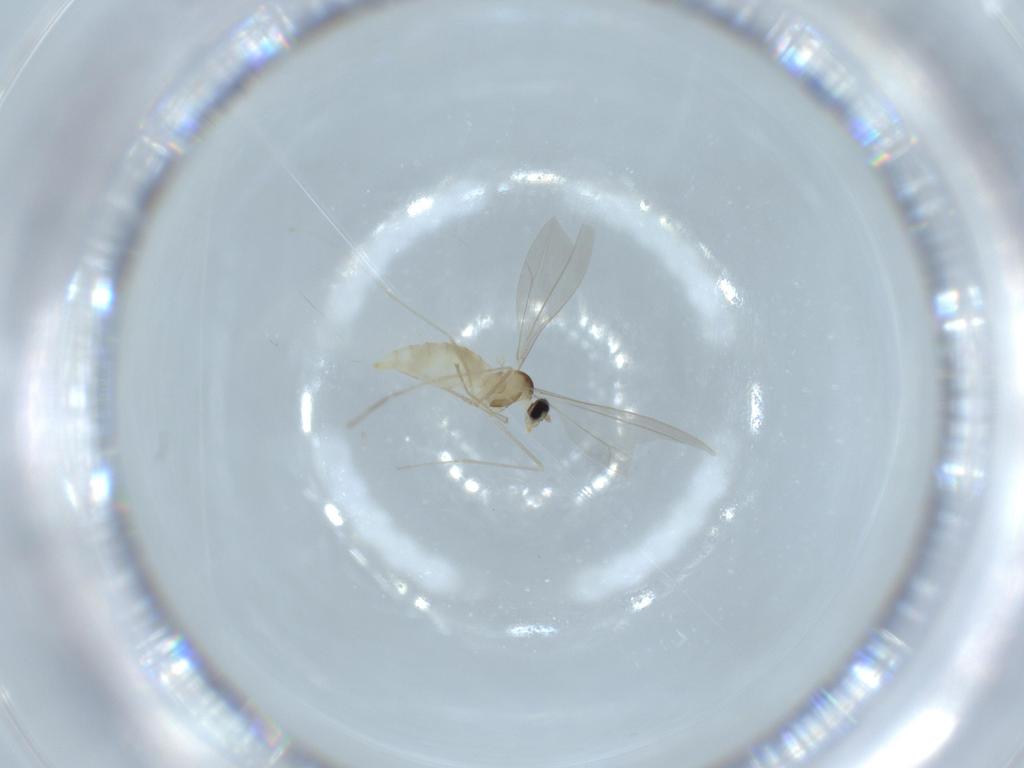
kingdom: Animalia
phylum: Arthropoda
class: Insecta
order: Diptera
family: Cecidomyiidae
